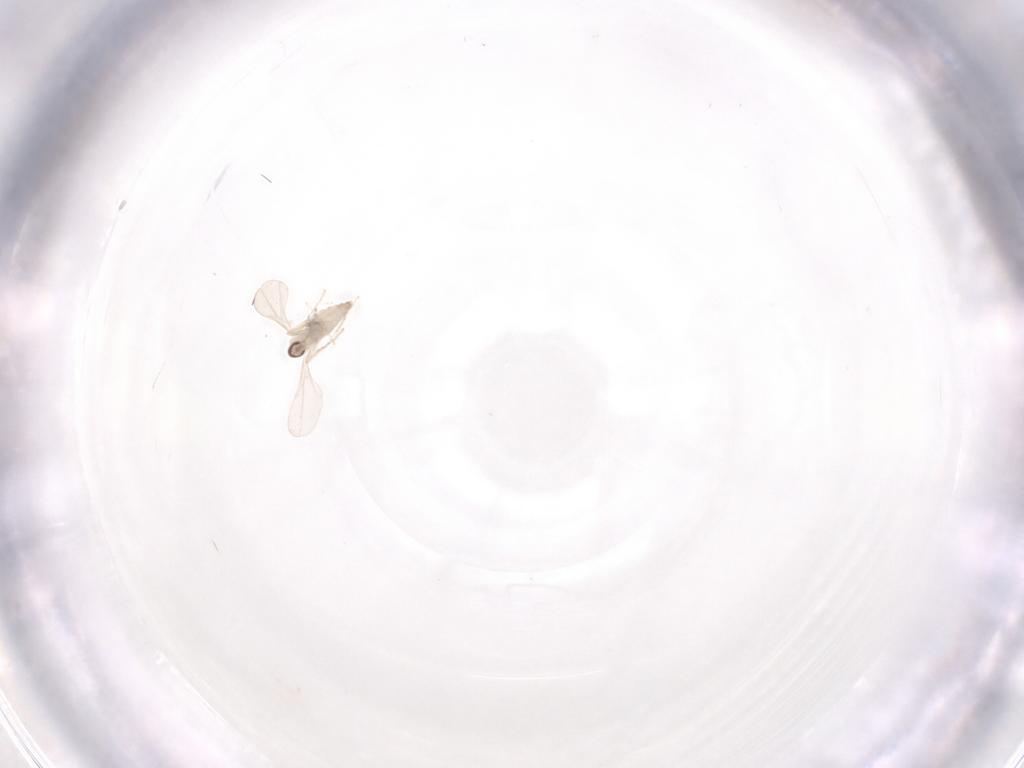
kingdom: Animalia
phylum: Arthropoda
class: Insecta
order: Diptera
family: Cecidomyiidae
